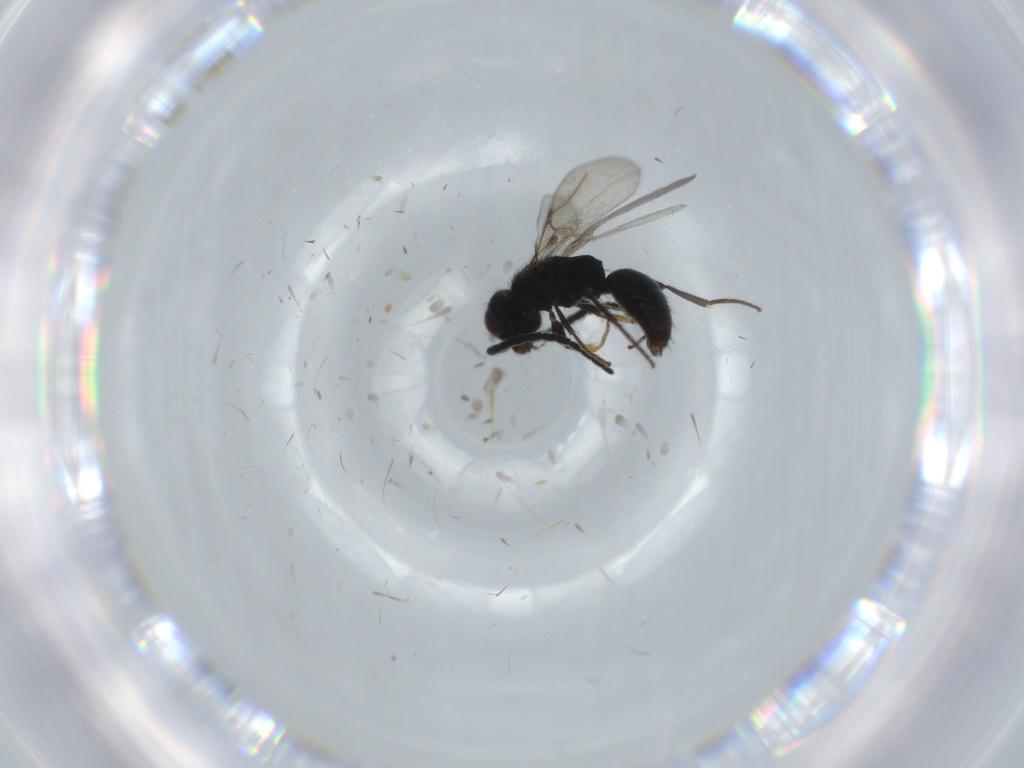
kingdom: Animalia
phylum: Arthropoda
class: Insecta
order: Hymenoptera
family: Bethylidae
